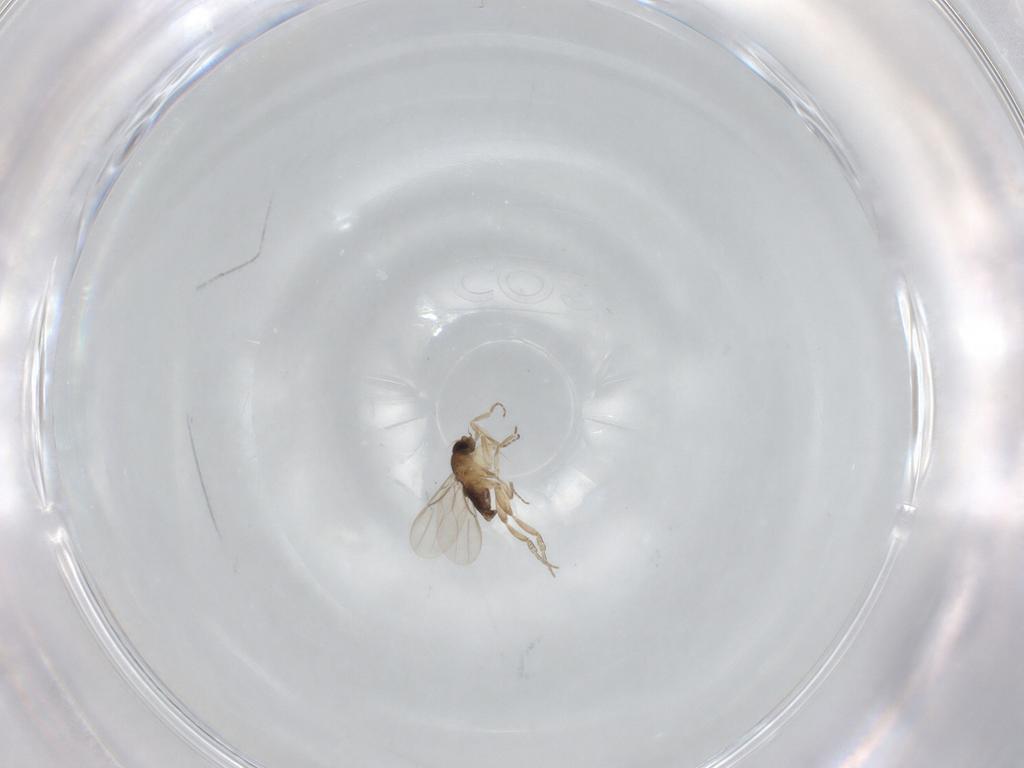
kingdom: Animalia
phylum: Arthropoda
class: Insecta
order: Diptera
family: Phoridae
